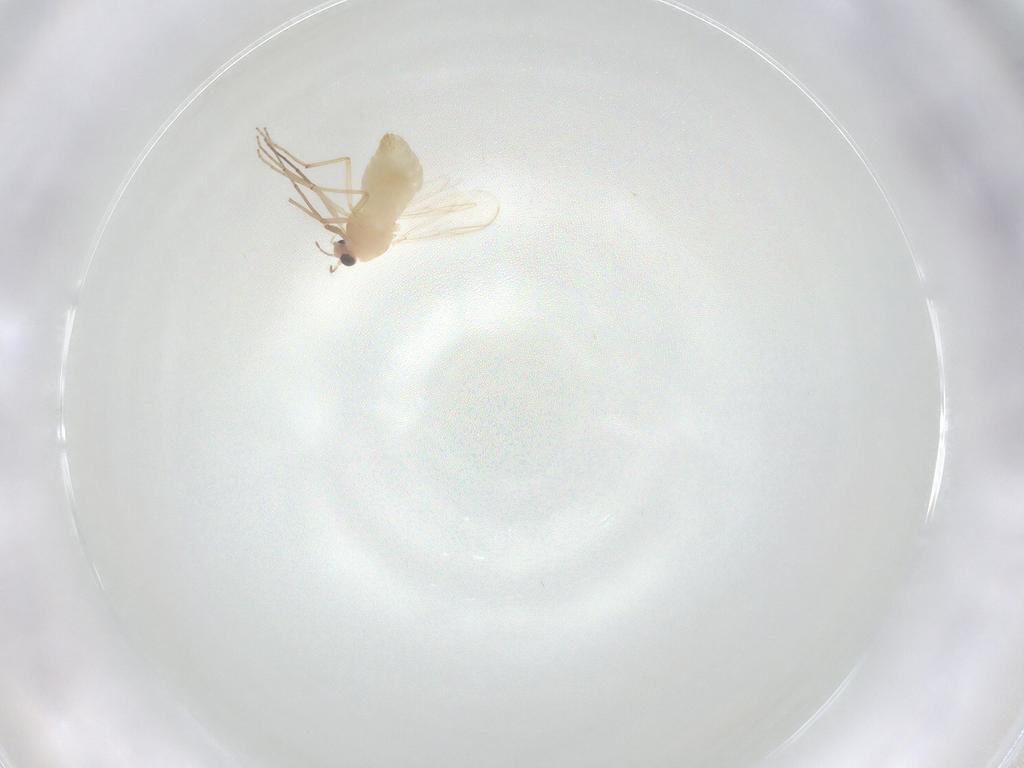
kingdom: Animalia
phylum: Arthropoda
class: Insecta
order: Diptera
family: Chironomidae
